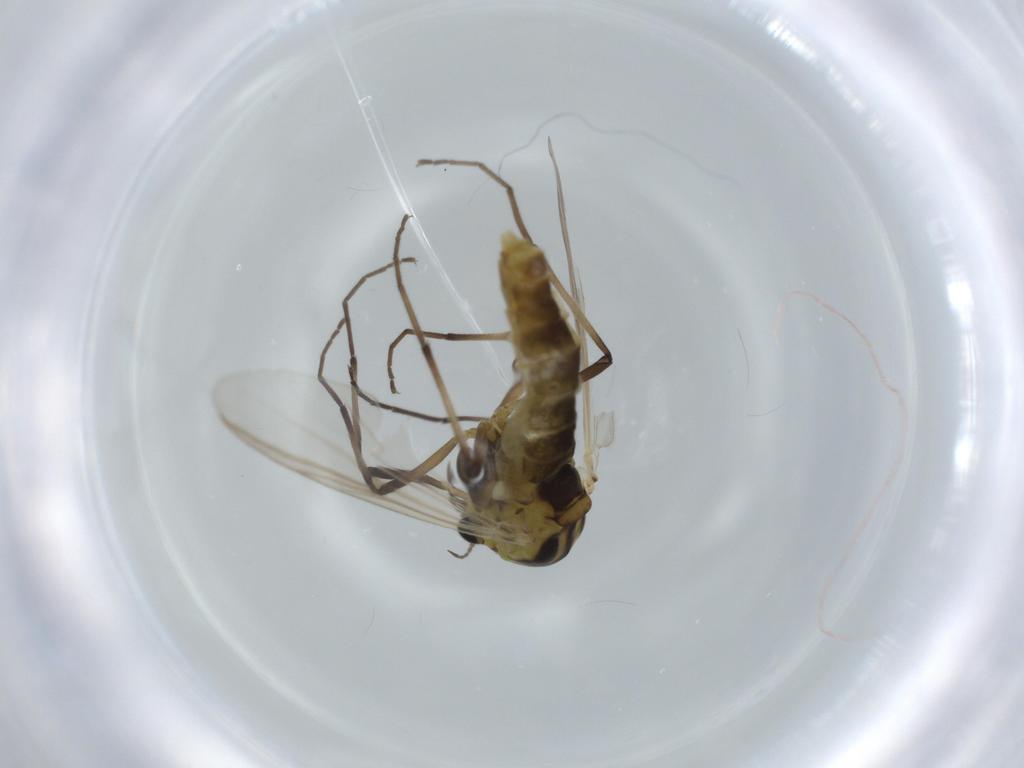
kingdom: Animalia
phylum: Arthropoda
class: Insecta
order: Diptera
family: Chironomidae
